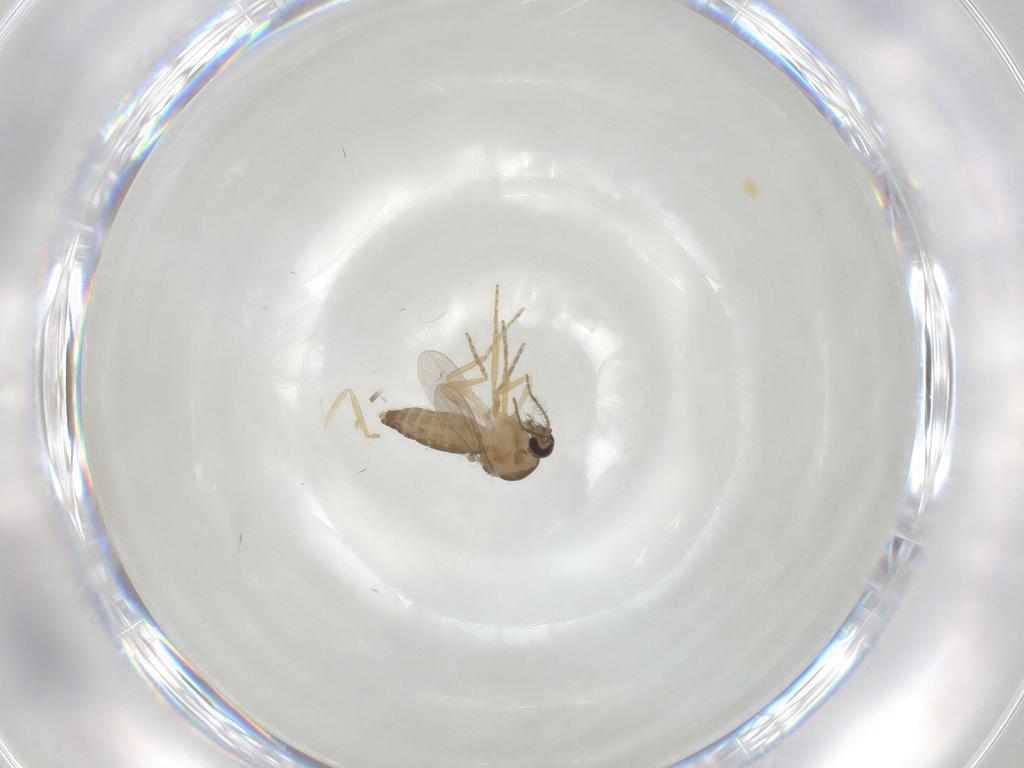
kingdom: Animalia
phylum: Arthropoda
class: Insecta
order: Diptera
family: Ceratopogonidae
